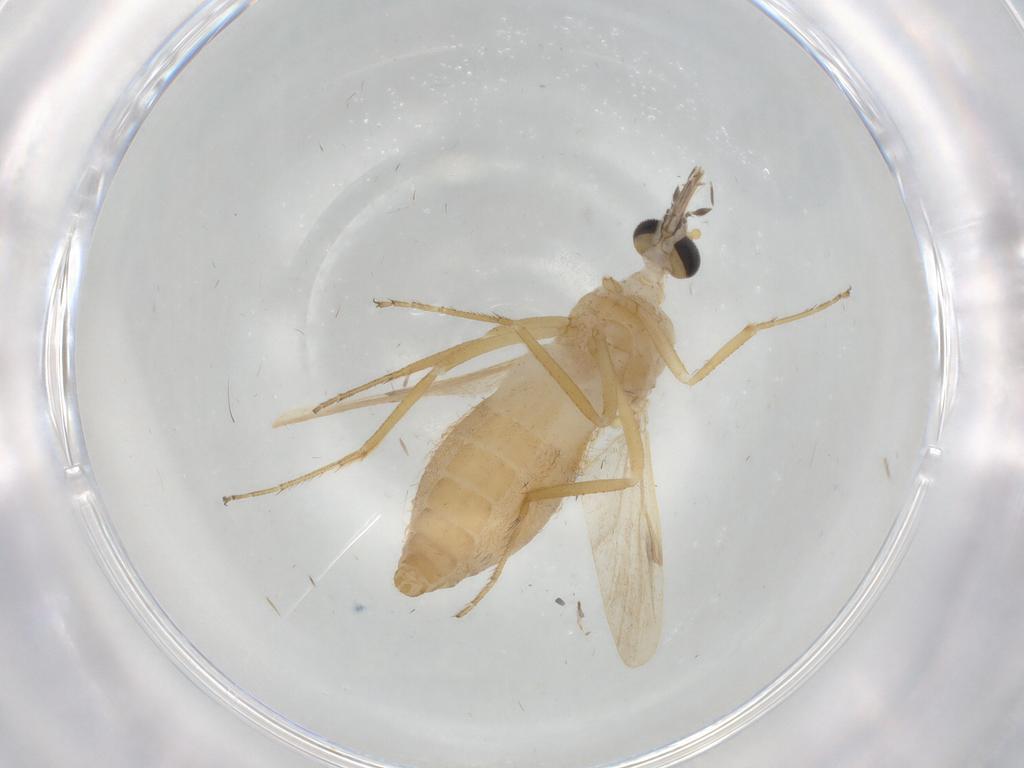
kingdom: Animalia
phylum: Arthropoda
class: Insecta
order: Diptera
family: Ceratopogonidae
